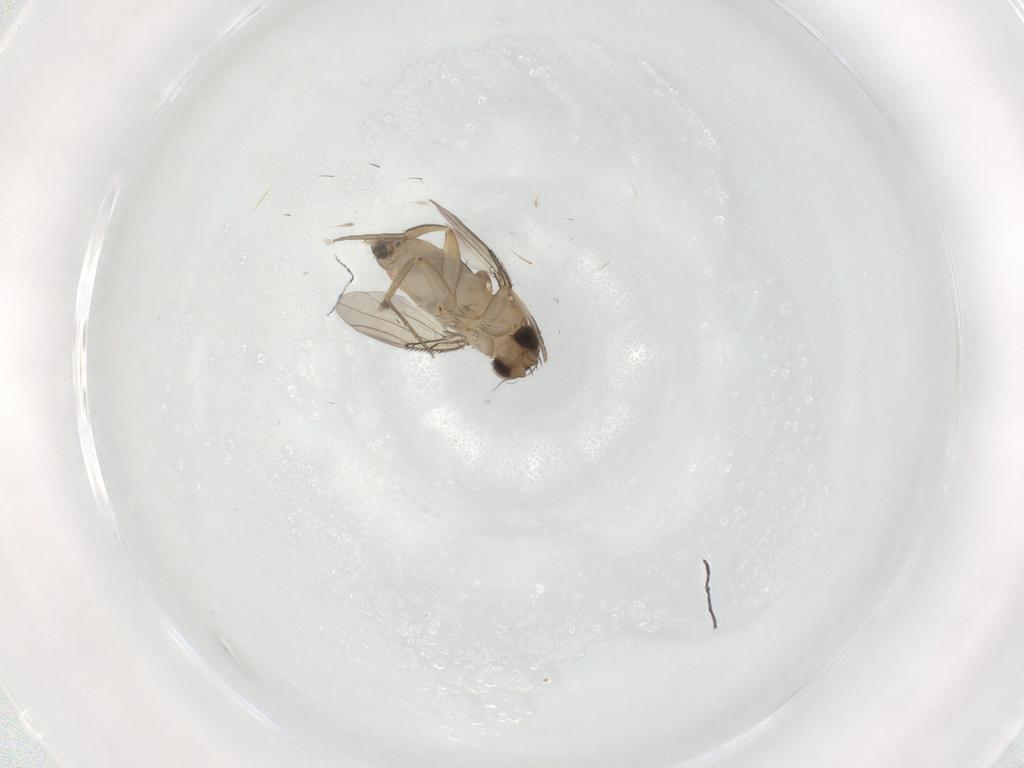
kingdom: Animalia
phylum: Arthropoda
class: Insecta
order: Diptera
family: Phoridae
